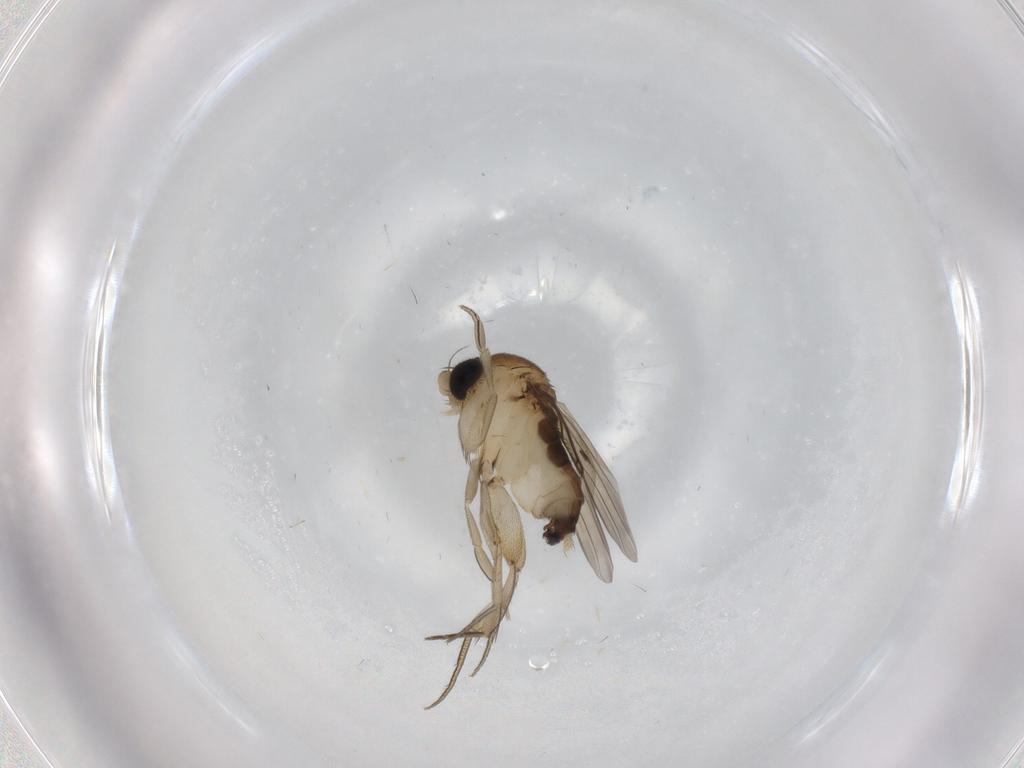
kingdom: Animalia
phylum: Arthropoda
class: Insecta
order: Diptera
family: Phoridae
